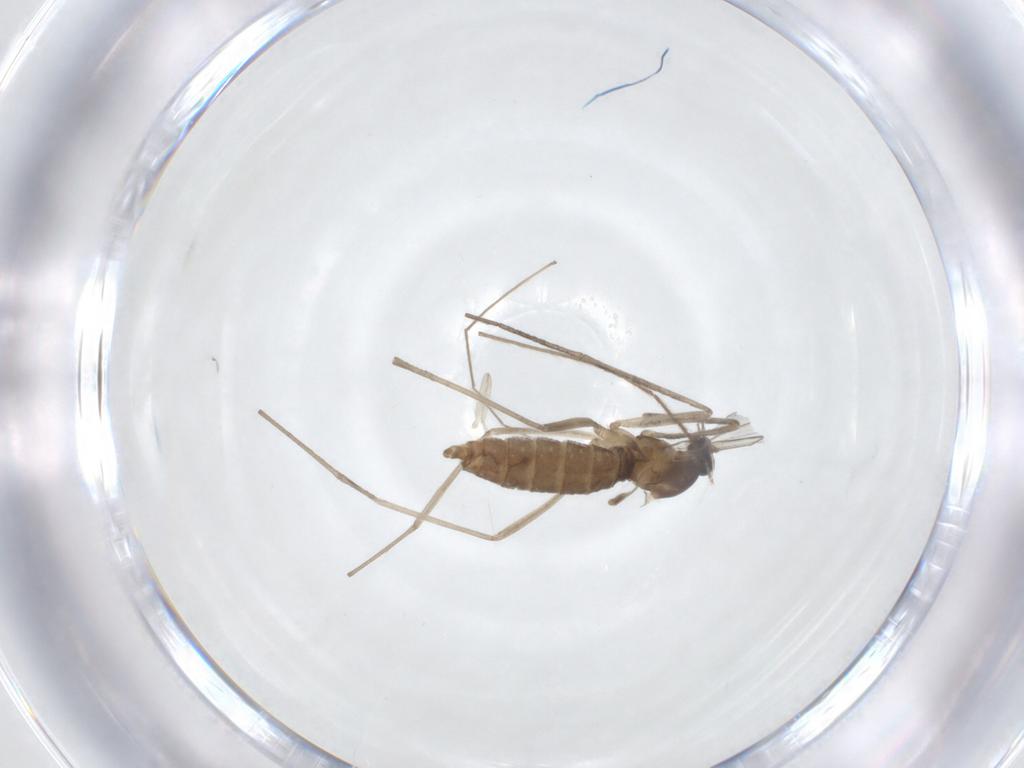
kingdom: Animalia
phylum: Arthropoda
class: Insecta
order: Diptera
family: Cecidomyiidae
